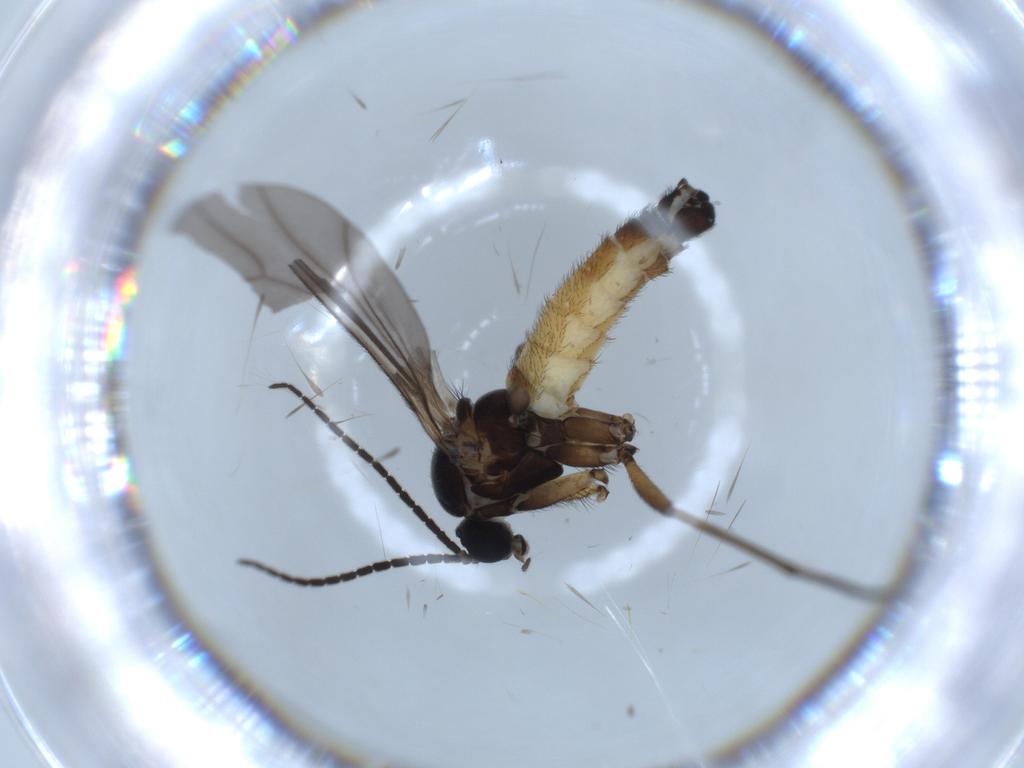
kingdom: Animalia
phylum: Arthropoda
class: Insecta
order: Diptera
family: Sciaridae
